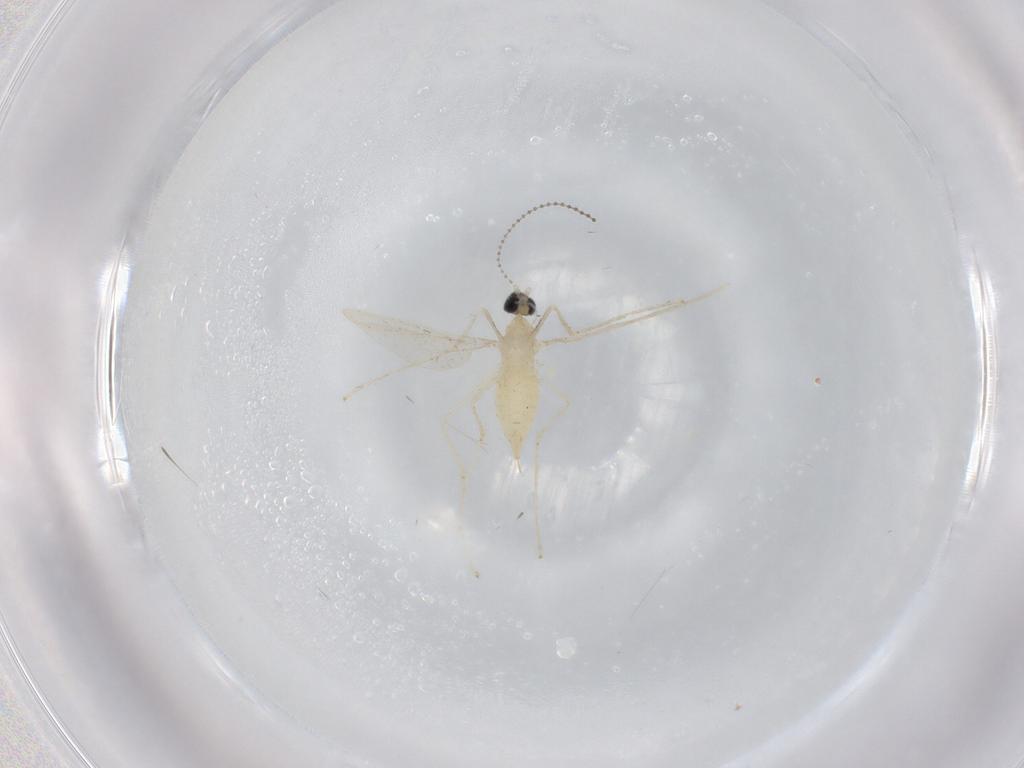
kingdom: Animalia
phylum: Arthropoda
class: Insecta
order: Diptera
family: Cecidomyiidae
